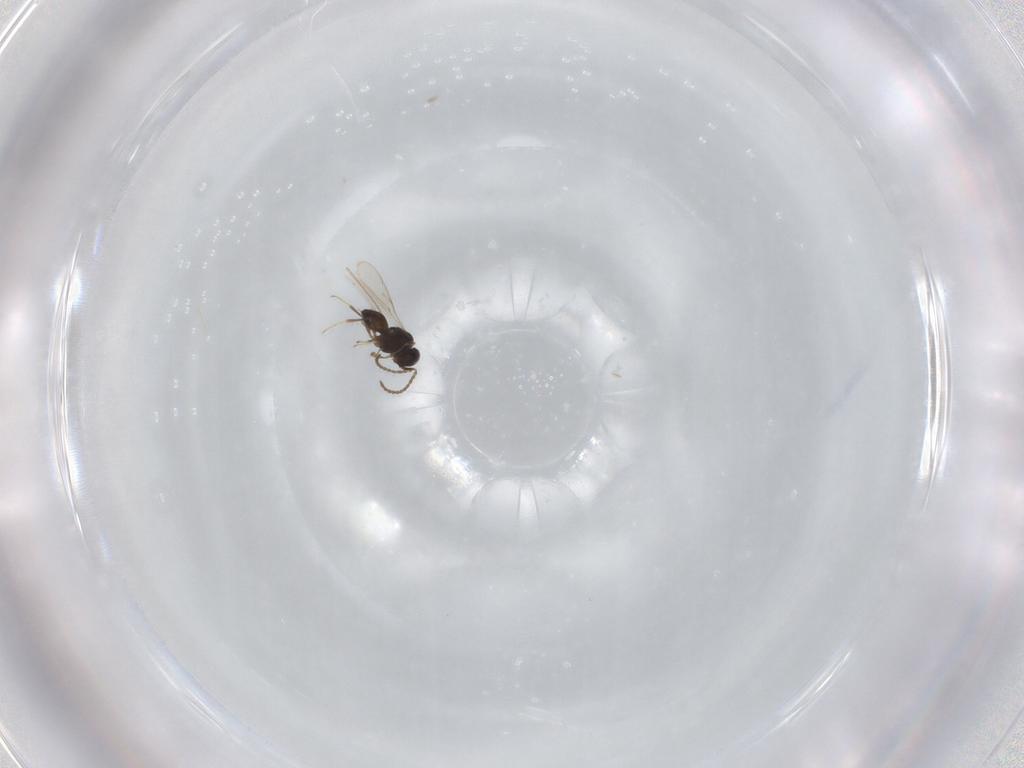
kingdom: Animalia
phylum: Arthropoda
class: Insecta
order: Hymenoptera
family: Scelionidae
